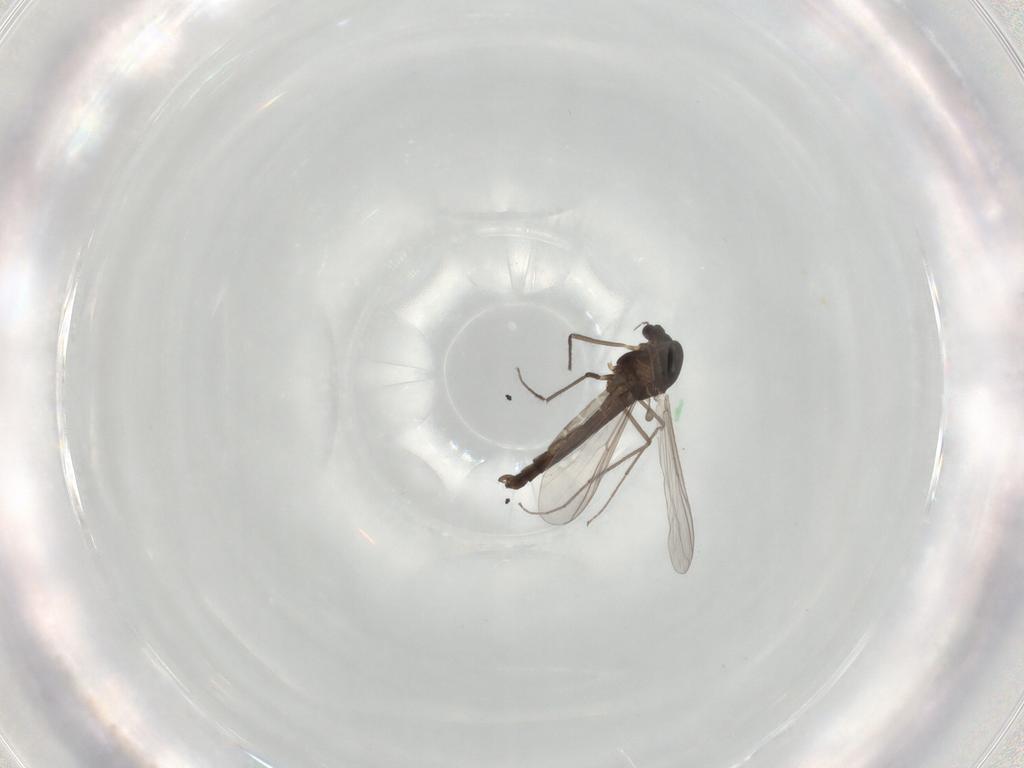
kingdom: Animalia
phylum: Arthropoda
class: Insecta
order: Diptera
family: Chironomidae
